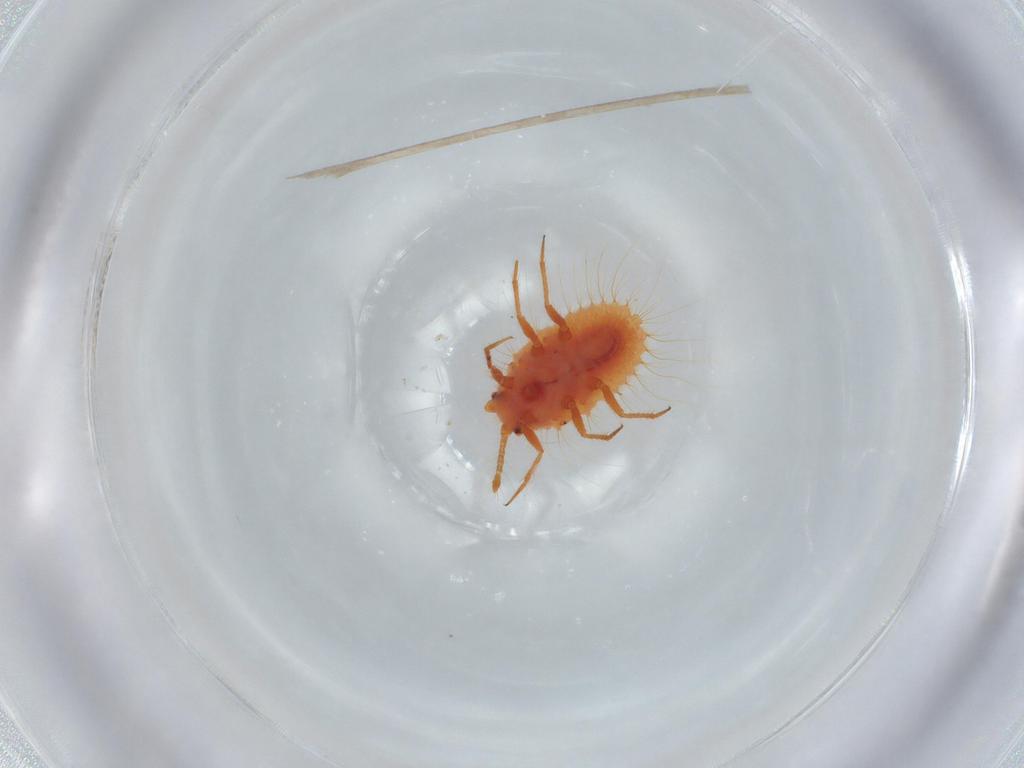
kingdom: Animalia
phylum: Arthropoda
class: Insecta
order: Hemiptera
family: Coccoidea_incertae_sedis
